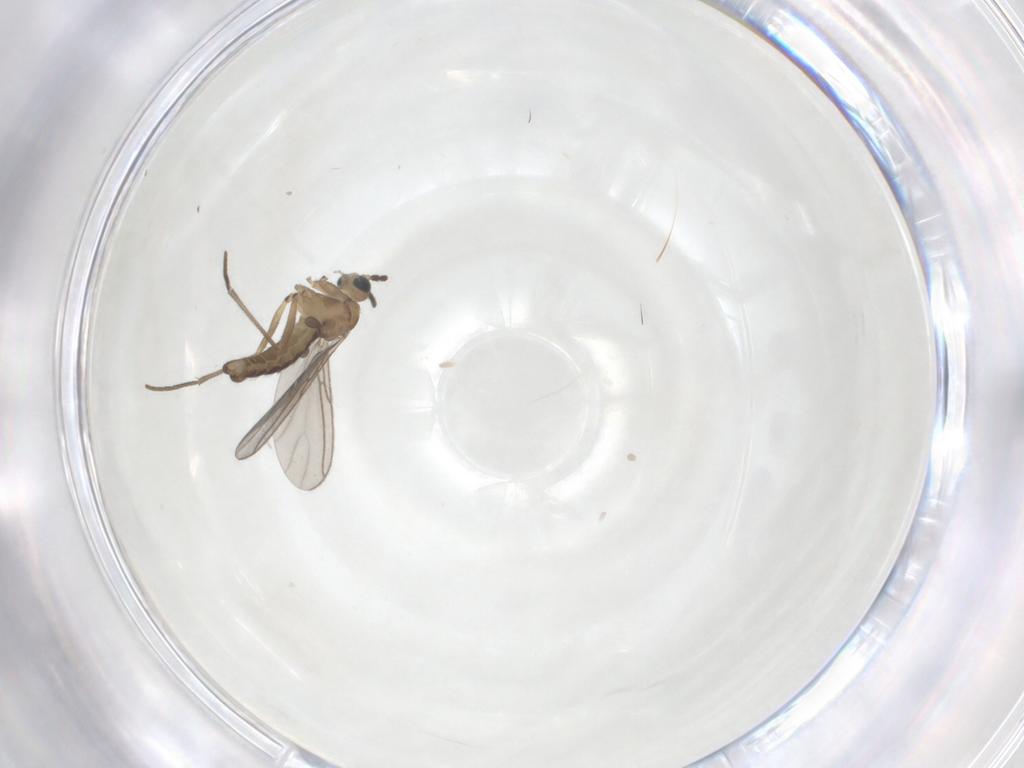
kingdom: Animalia
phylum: Arthropoda
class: Insecta
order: Diptera
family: Sciaridae
